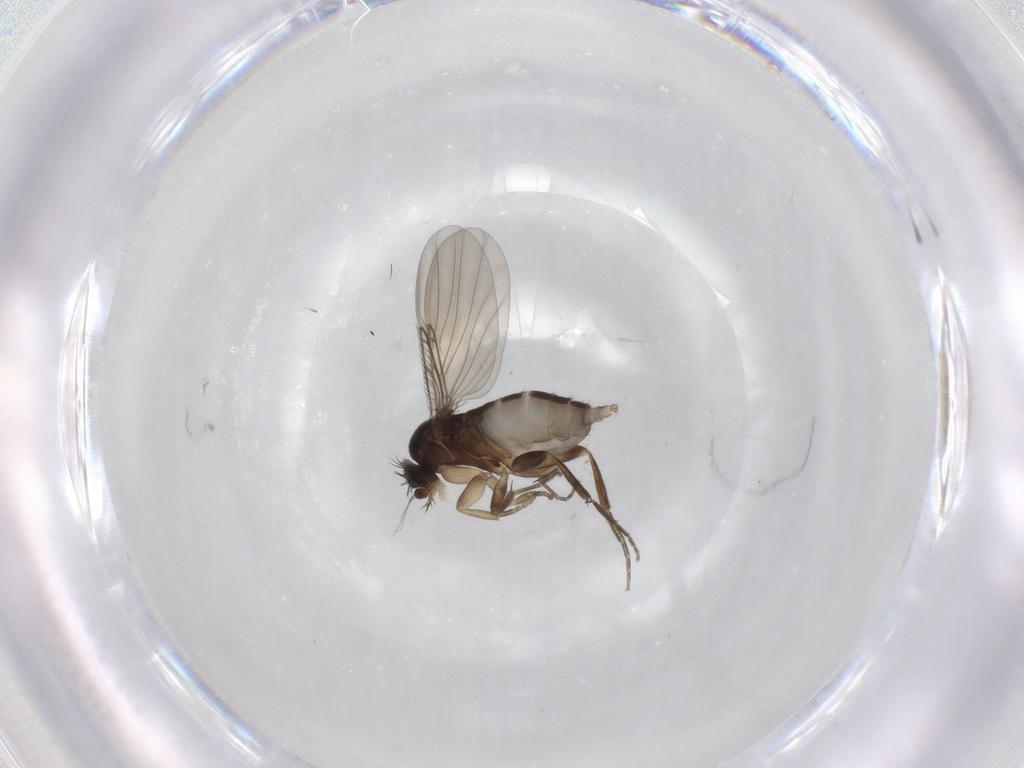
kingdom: Animalia
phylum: Arthropoda
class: Insecta
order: Diptera
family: Phoridae
